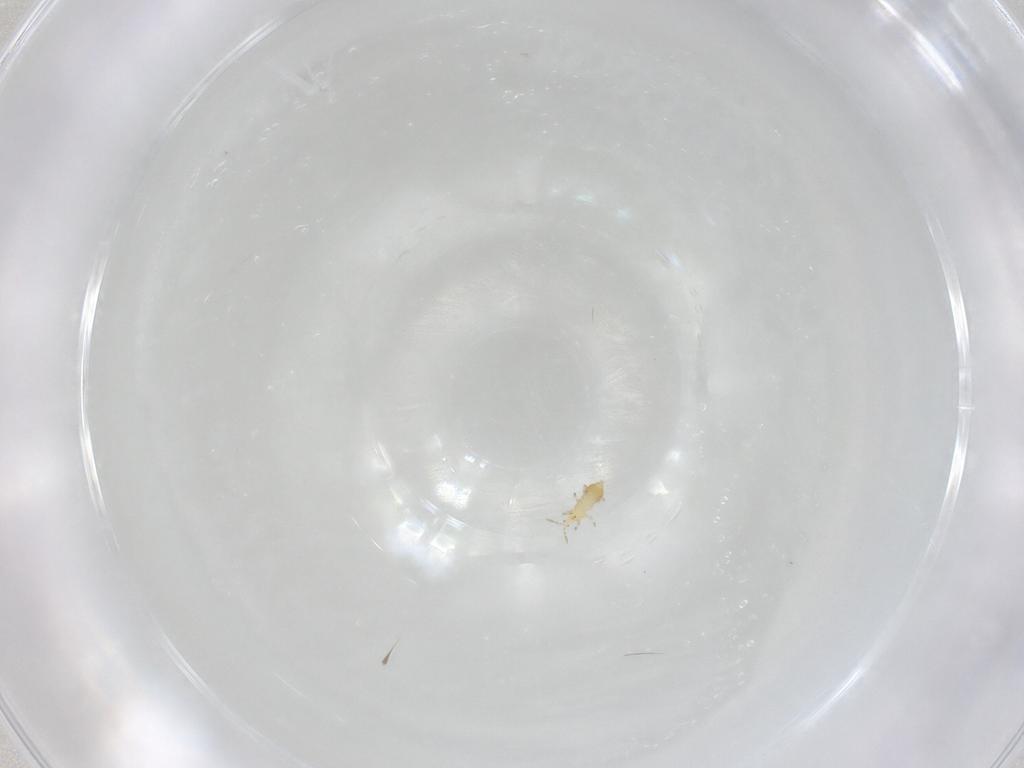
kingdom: Animalia
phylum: Arthropoda
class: Insecta
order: Thysanoptera
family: Thripidae
